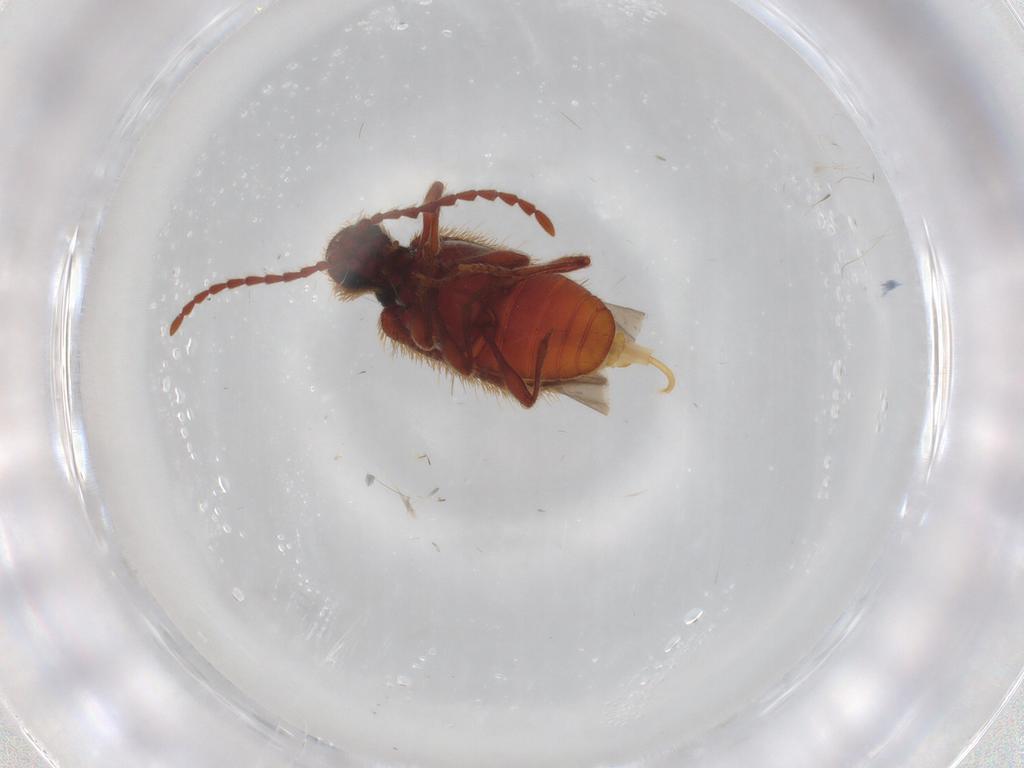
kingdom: Animalia
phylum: Arthropoda
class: Insecta
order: Coleoptera
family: Ptinidae
